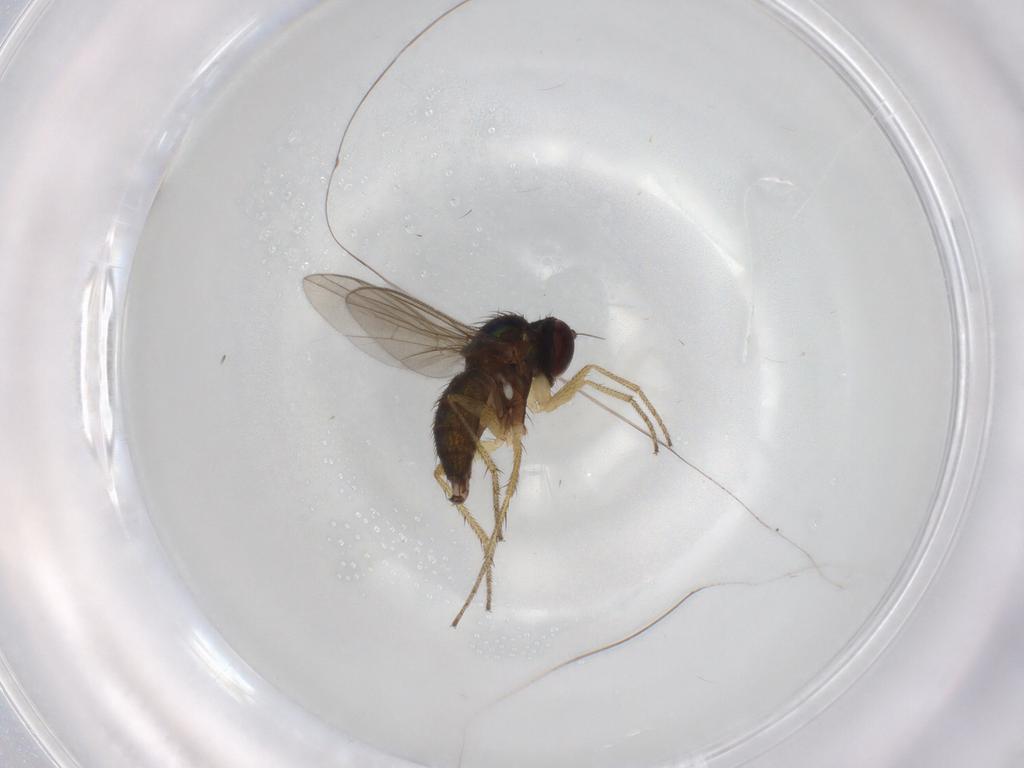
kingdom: Animalia
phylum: Arthropoda
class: Insecta
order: Diptera
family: Chironomidae
